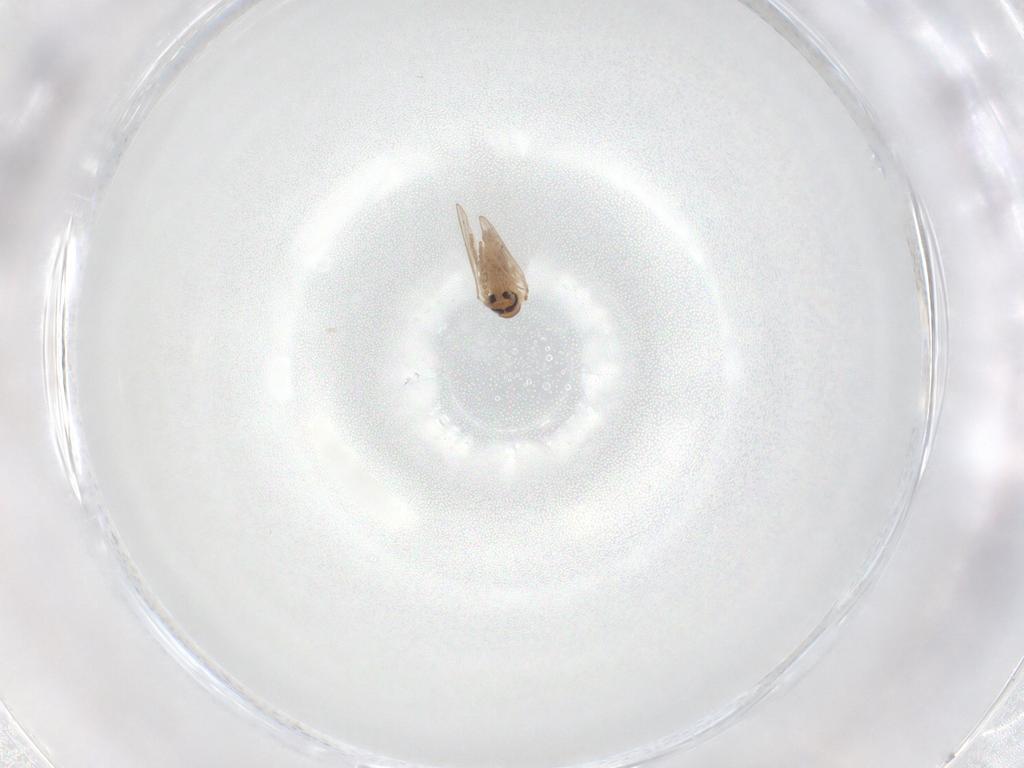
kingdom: Animalia
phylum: Arthropoda
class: Insecta
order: Diptera
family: Psychodidae
